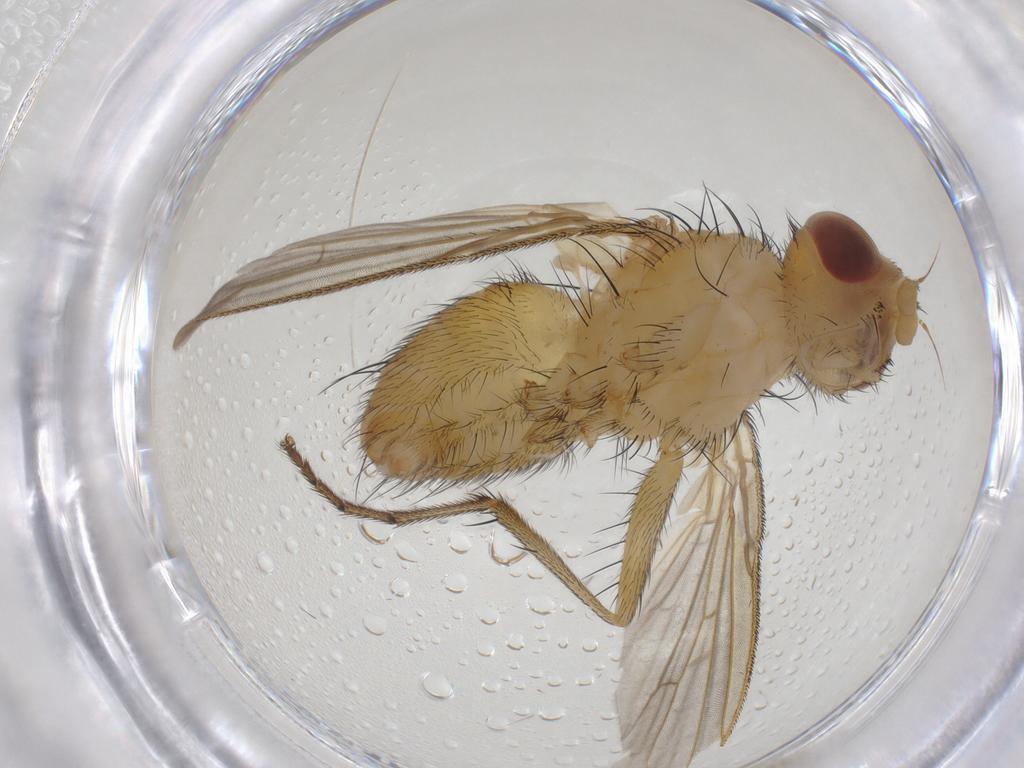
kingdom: Animalia
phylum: Arthropoda
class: Insecta
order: Diptera
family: Tachinidae
